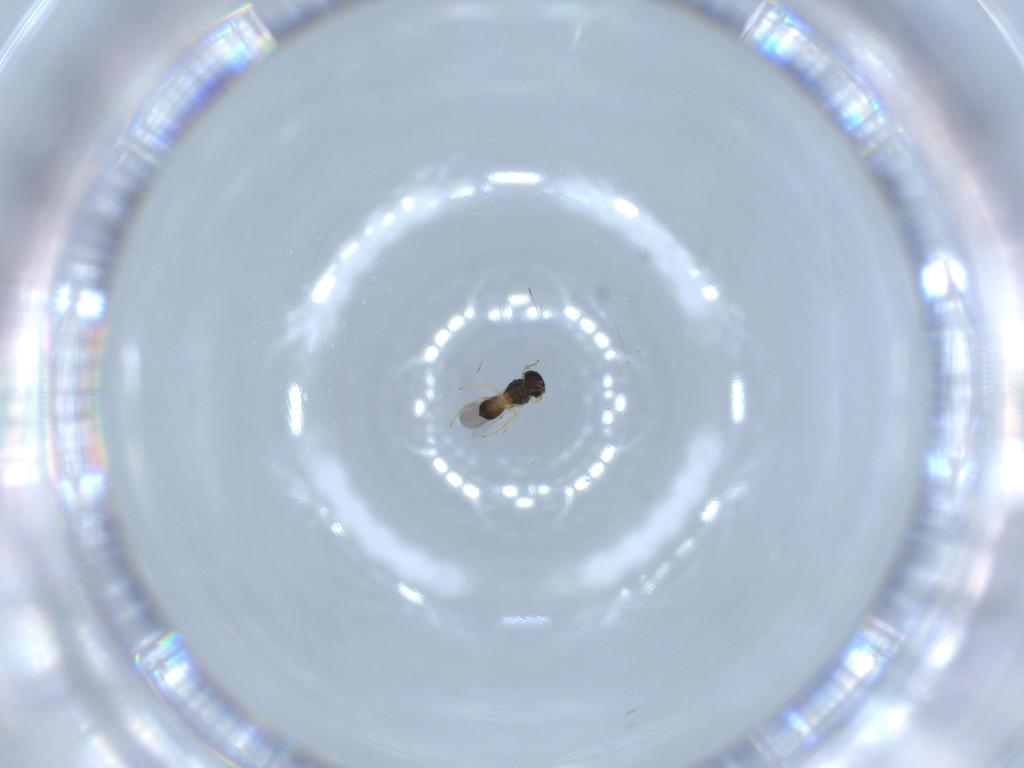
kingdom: Animalia
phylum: Arthropoda
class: Insecta
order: Hymenoptera
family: Scelionidae
